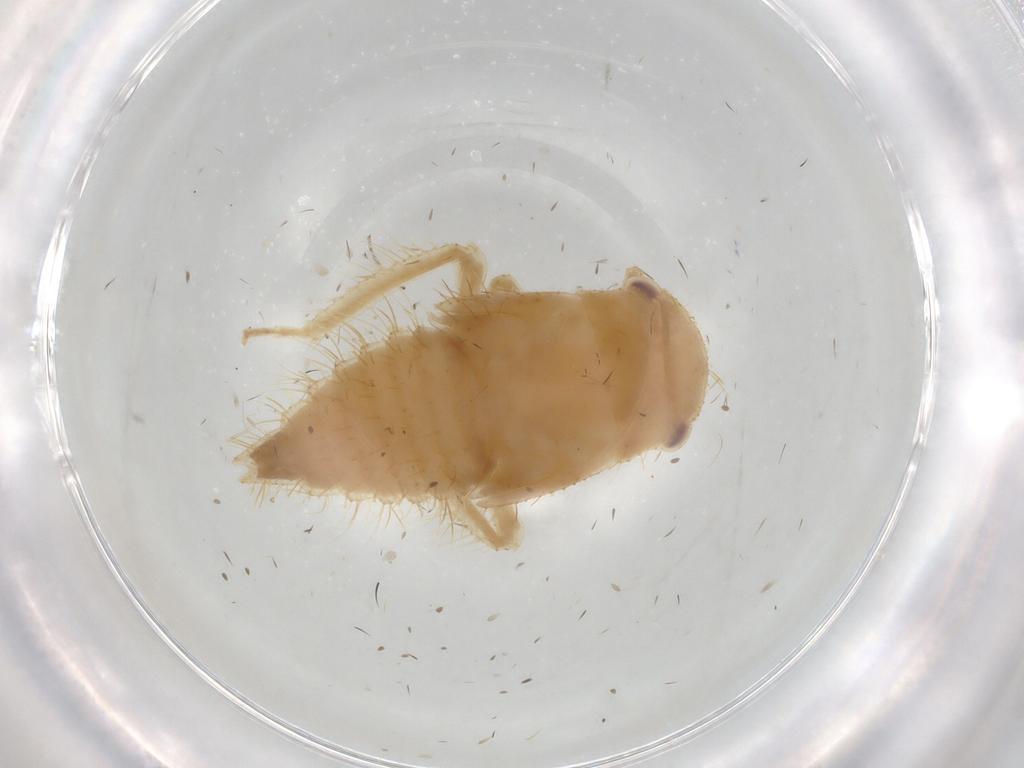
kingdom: Animalia
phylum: Arthropoda
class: Insecta
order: Hemiptera
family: Cicadellidae
